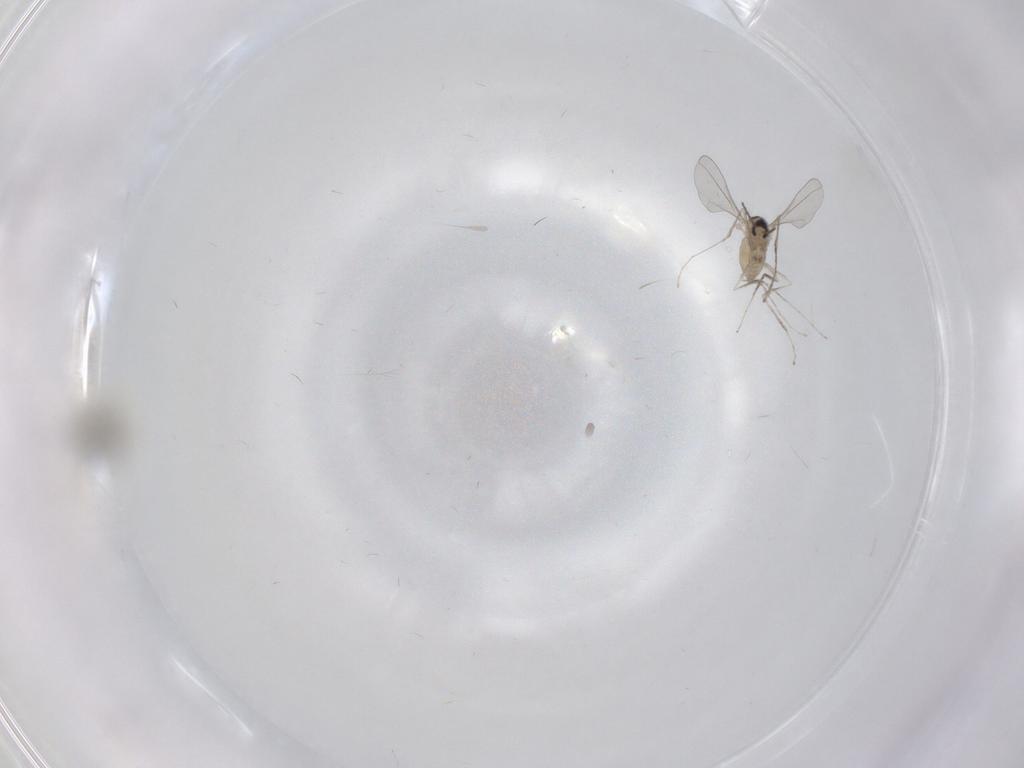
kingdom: Animalia
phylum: Arthropoda
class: Insecta
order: Diptera
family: Cecidomyiidae
